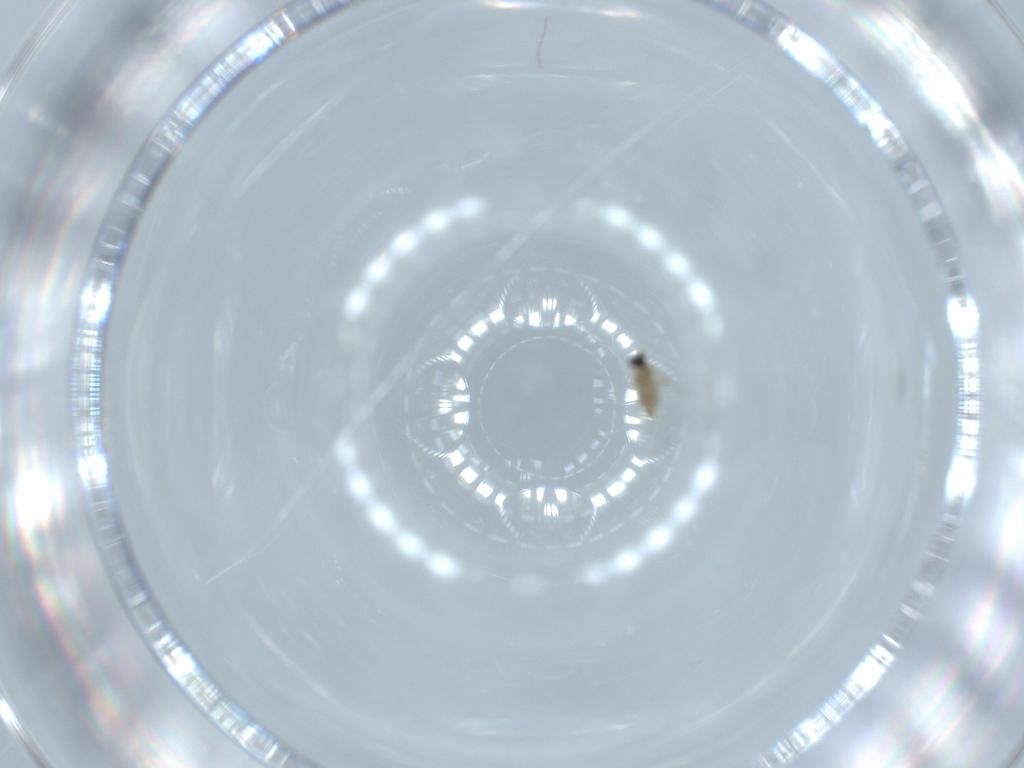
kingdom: Animalia
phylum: Arthropoda
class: Insecta
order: Diptera
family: Cecidomyiidae
